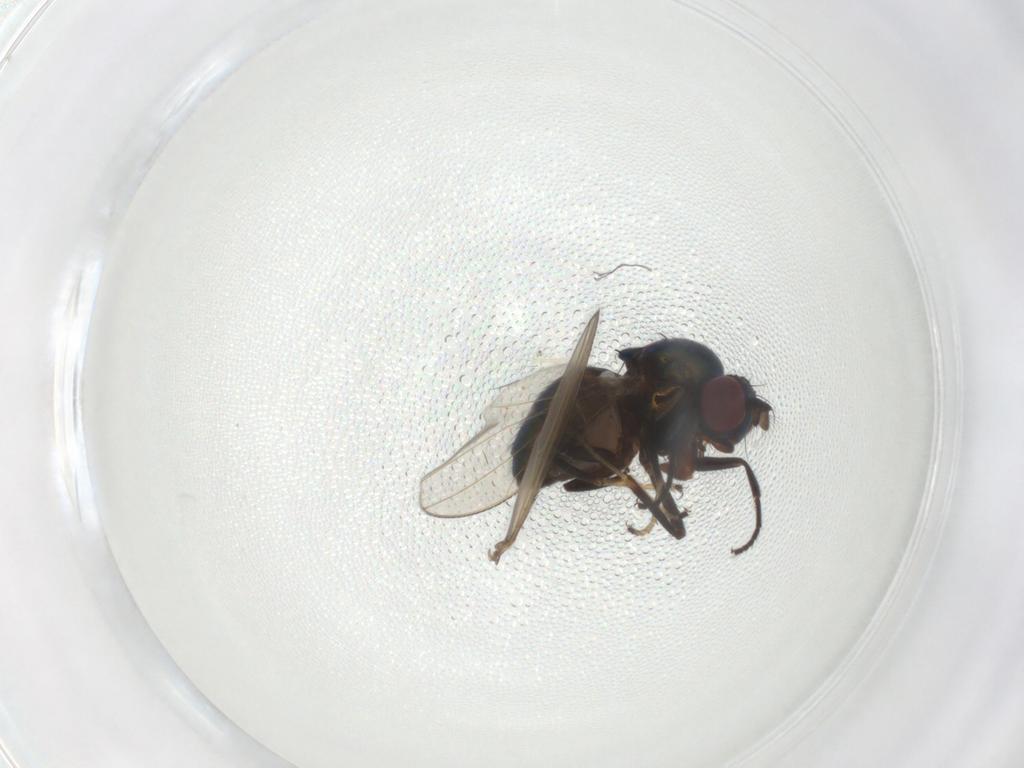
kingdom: Animalia
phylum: Arthropoda
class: Insecta
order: Diptera
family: Ephydridae
